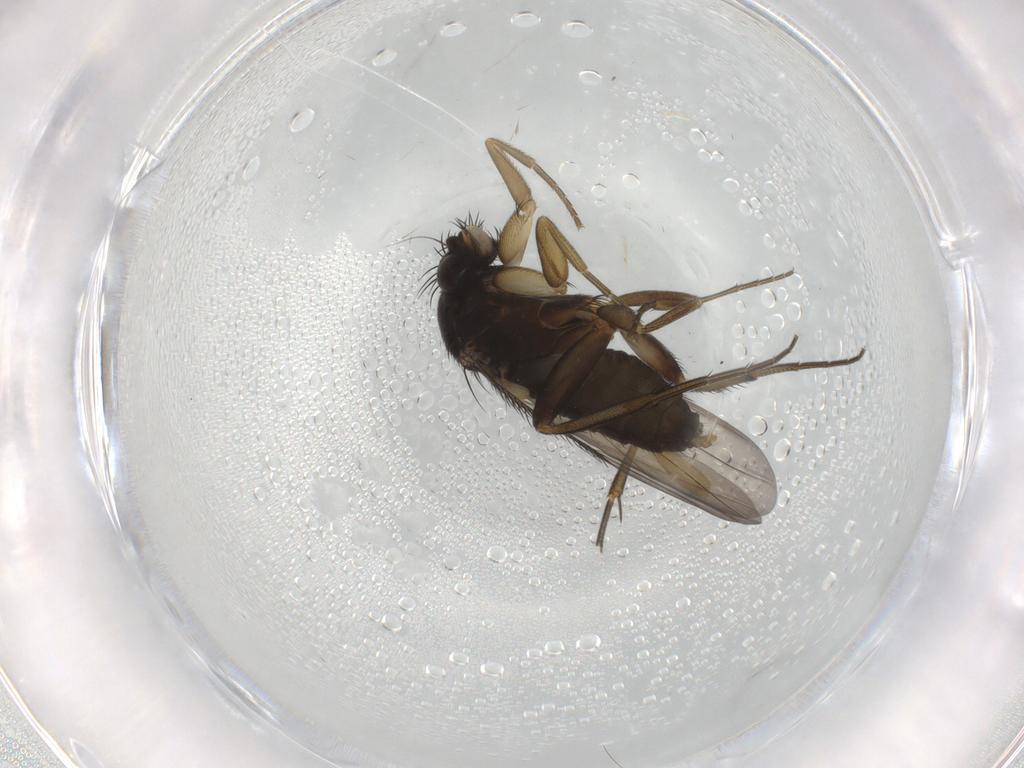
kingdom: Animalia
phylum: Arthropoda
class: Insecta
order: Diptera
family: Phoridae
